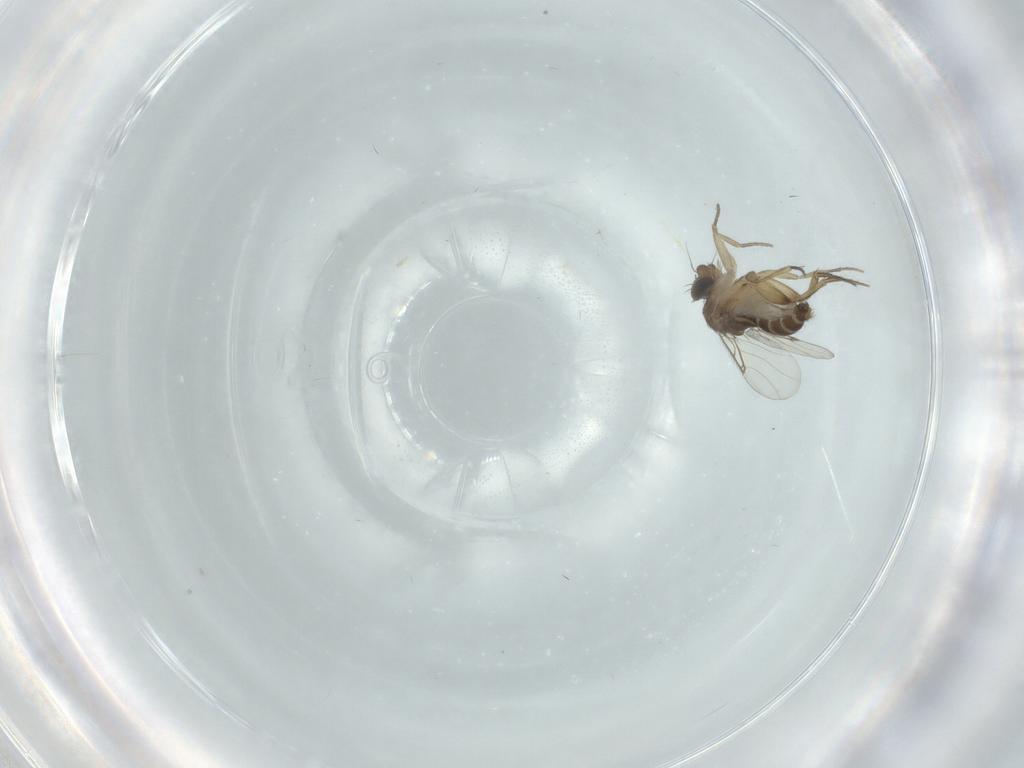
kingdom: Animalia
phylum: Arthropoda
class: Insecta
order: Diptera
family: Phoridae
